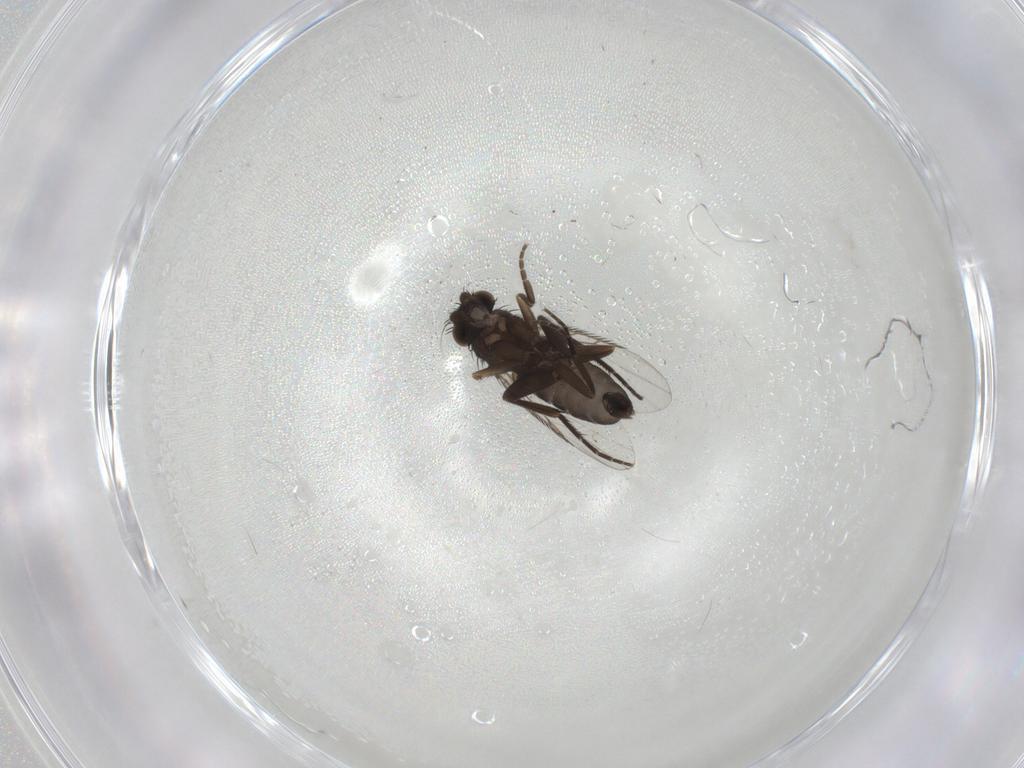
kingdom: Animalia
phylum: Arthropoda
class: Insecta
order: Diptera
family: Phoridae
